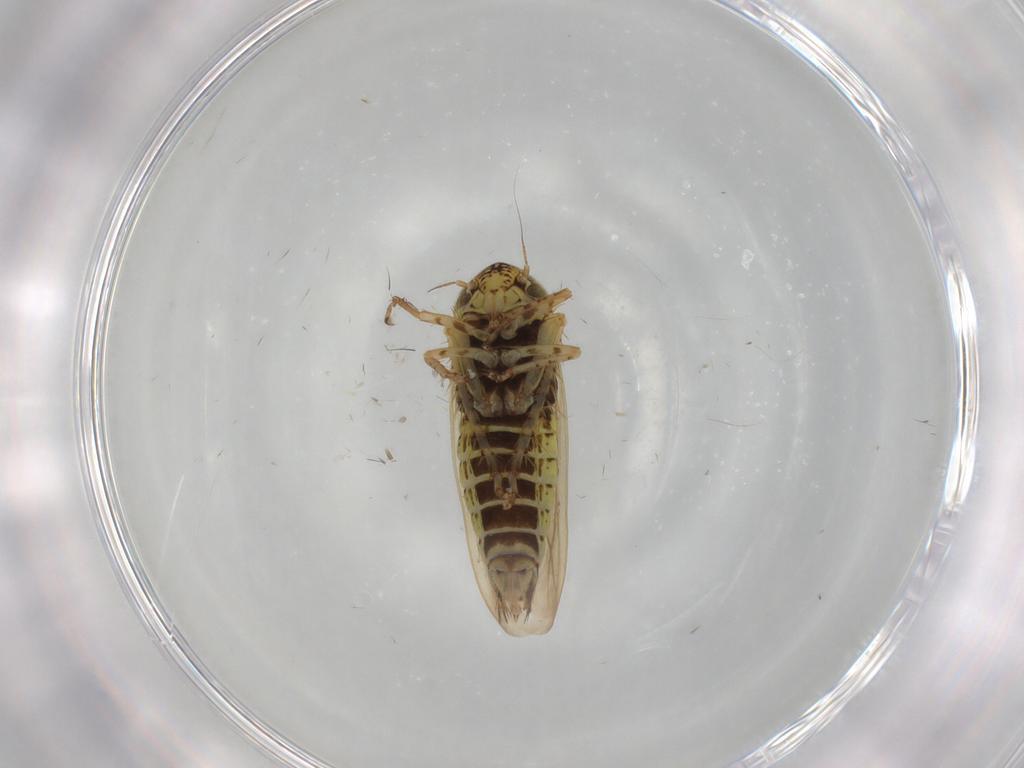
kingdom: Animalia
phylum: Arthropoda
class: Insecta
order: Hemiptera
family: Cicadellidae
